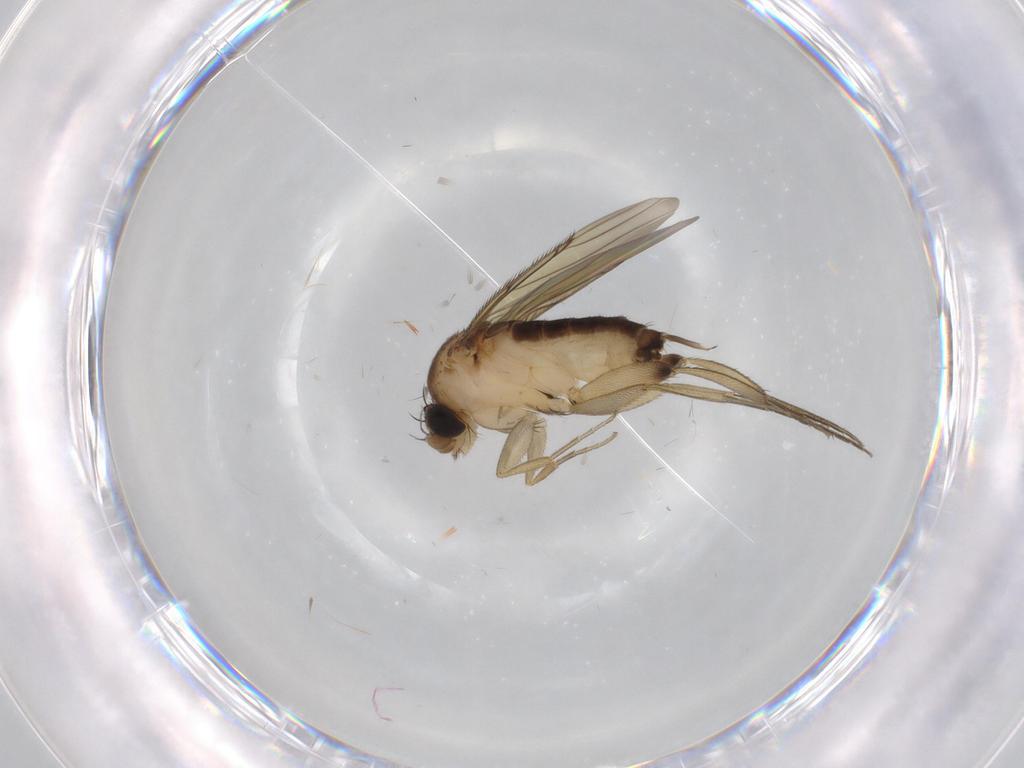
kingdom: Animalia
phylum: Arthropoda
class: Insecta
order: Diptera
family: Phoridae
